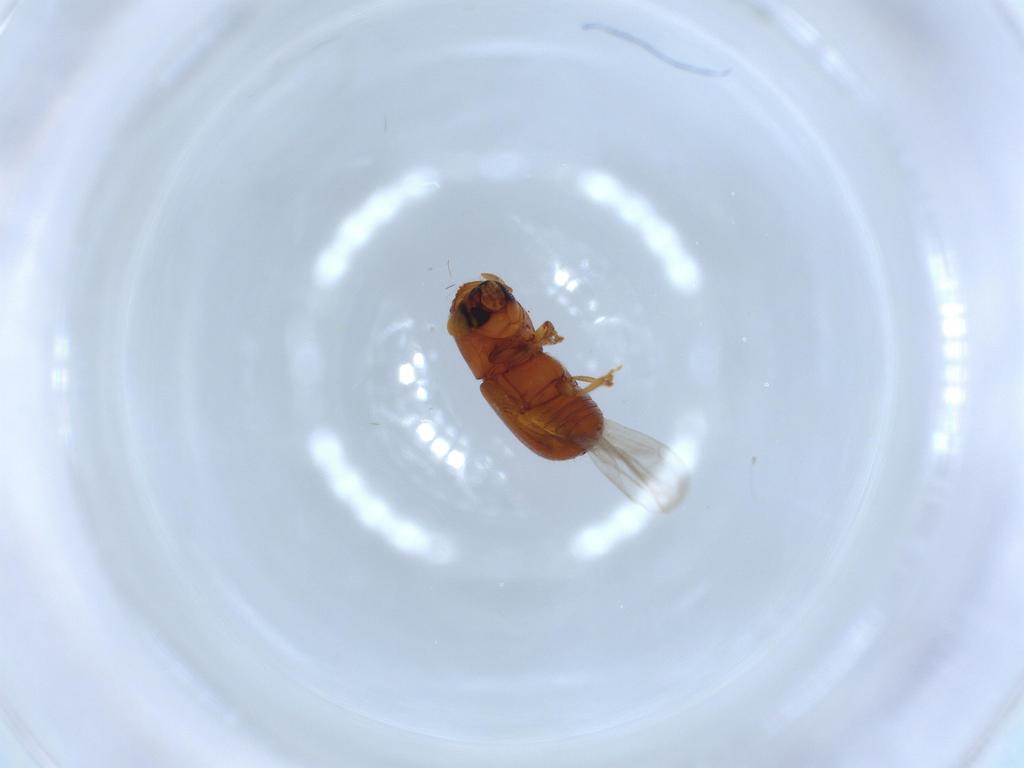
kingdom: Animalia
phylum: Arthropoda
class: Insecta
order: Coleoptera
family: Curculionidae
